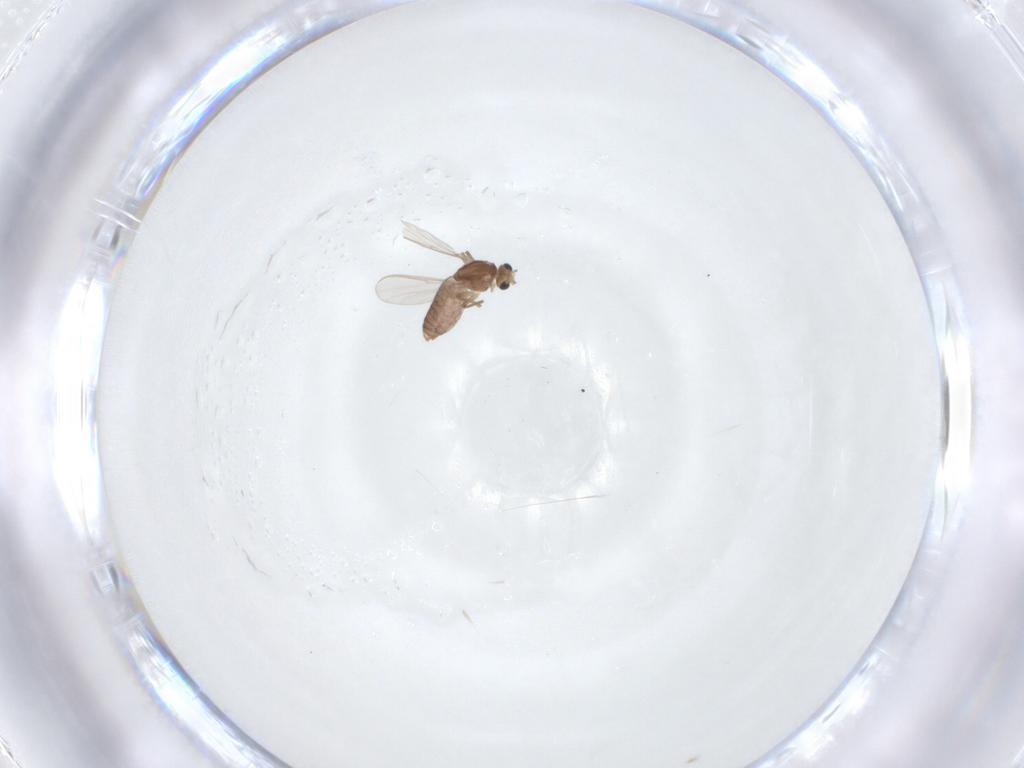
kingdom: Animalia
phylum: Arthropoda
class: Insecta
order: Diptera
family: Chironomidae
